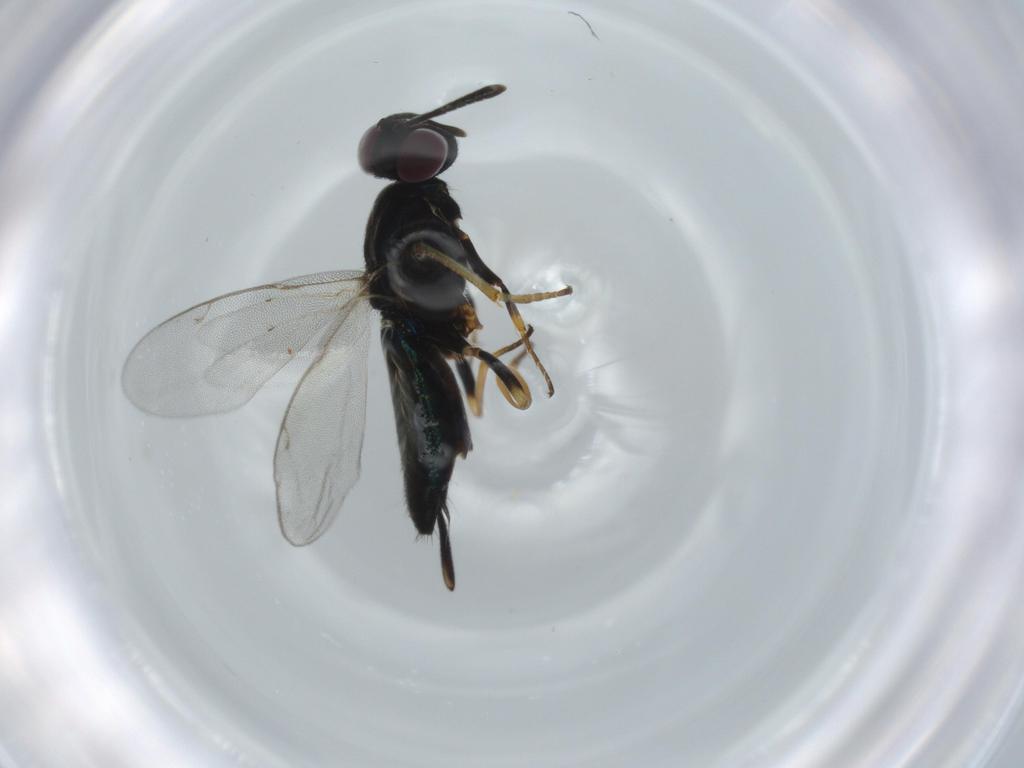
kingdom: Animalia
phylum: Arthropoda
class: Insecta
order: Hymenoptera
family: Eupelmidae
